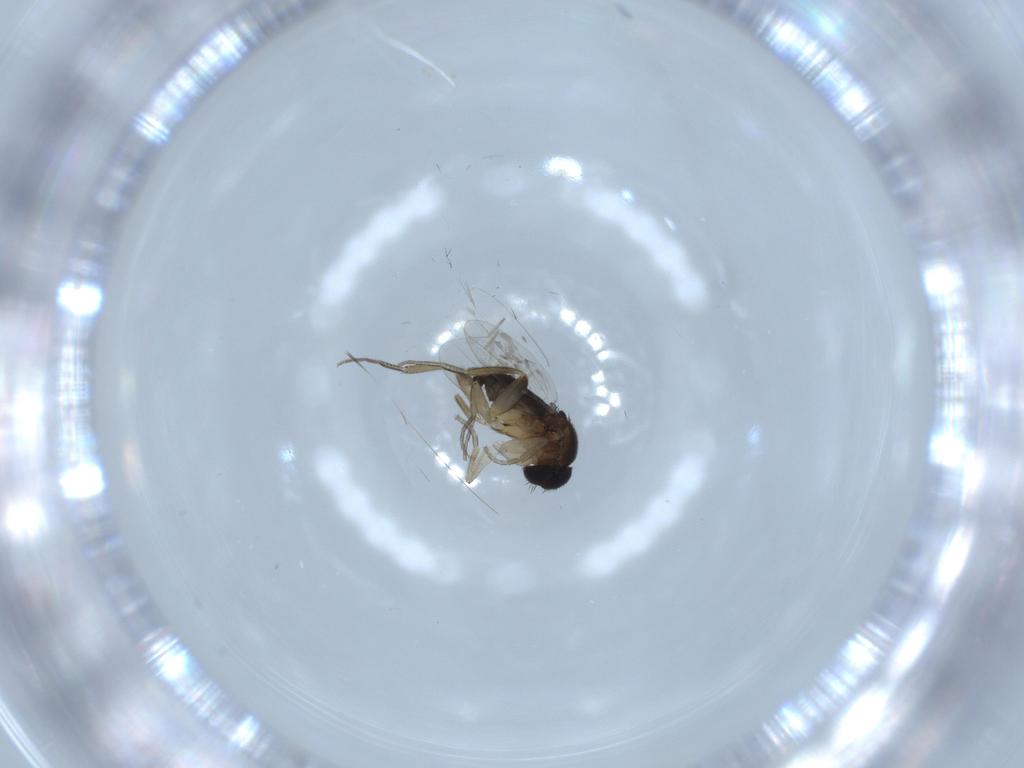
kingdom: Animalia
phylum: Arthropoda
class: Insecta
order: Diptera
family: Phoridae
